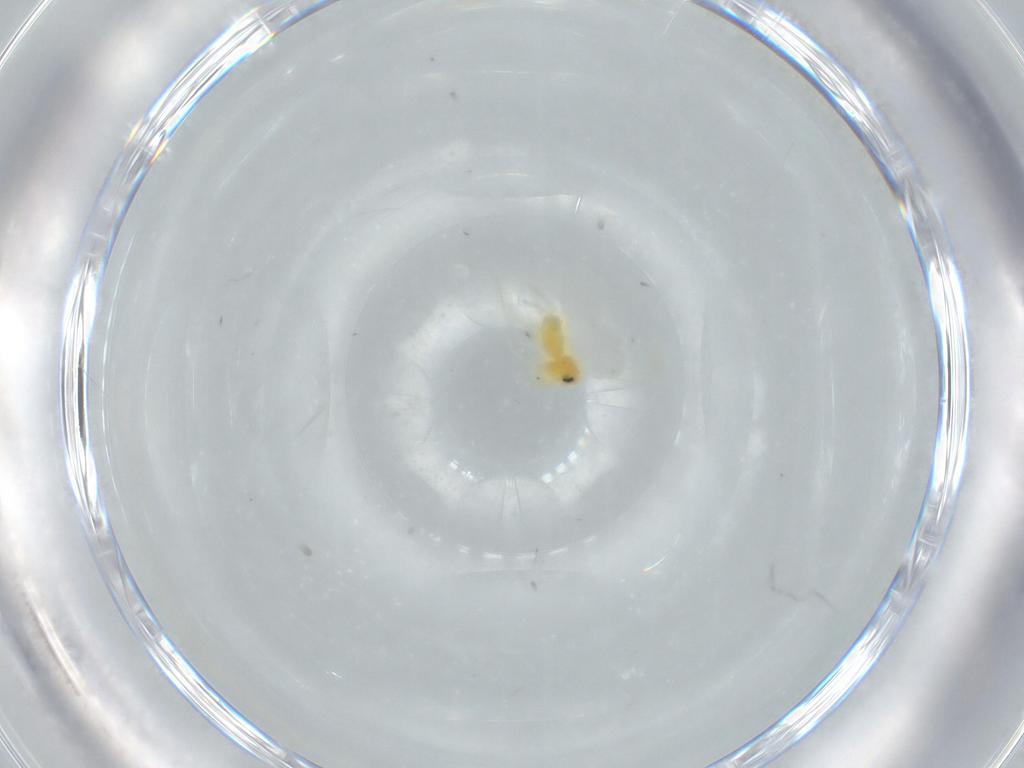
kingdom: Animalia
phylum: Arthropoda
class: Insecta
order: Hemiptera
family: Aleyrodidae
